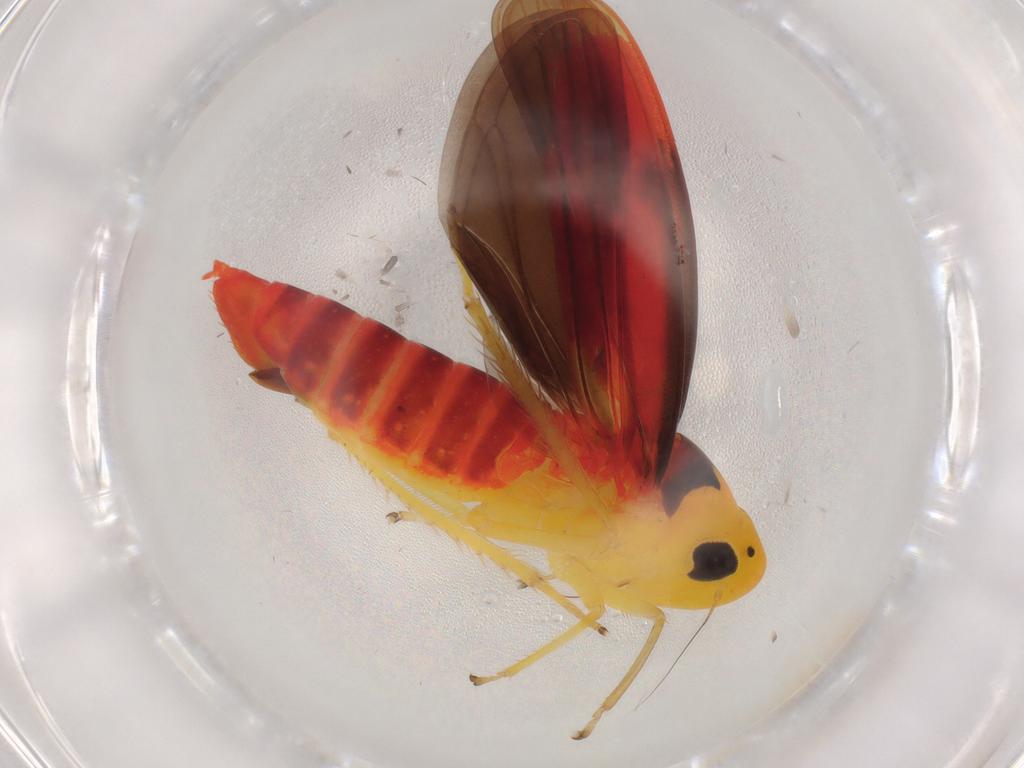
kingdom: Animalia
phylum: Arthropoda
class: Insecta
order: Hemiptera
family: Cicadellidae
